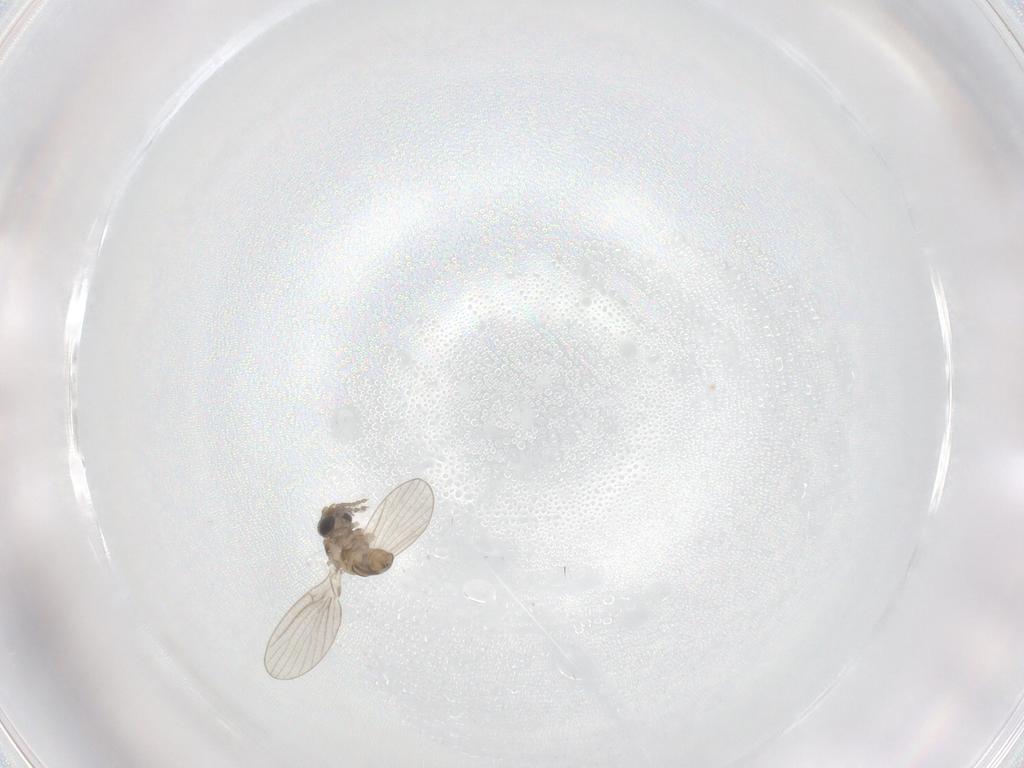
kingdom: Animalia
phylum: Arthropoda
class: Insecta
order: Diptera
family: Cecidomyiidae
